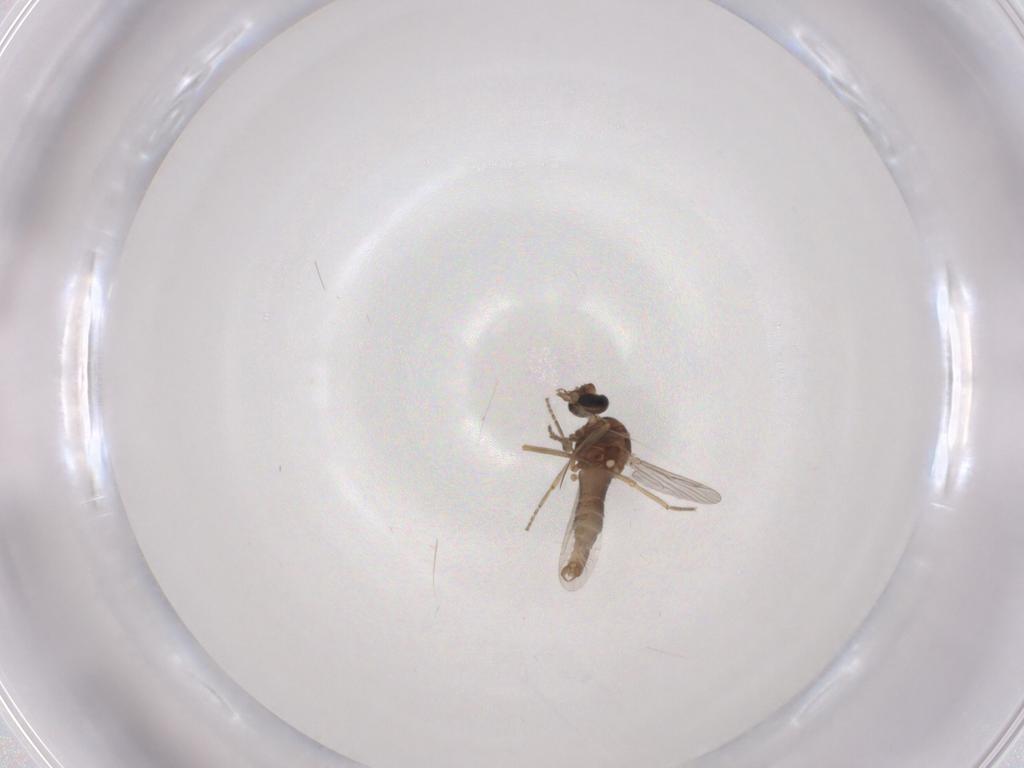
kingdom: Animalia
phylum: Arthropoda
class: Insecta
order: Diptera
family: Ceratopogonidae
